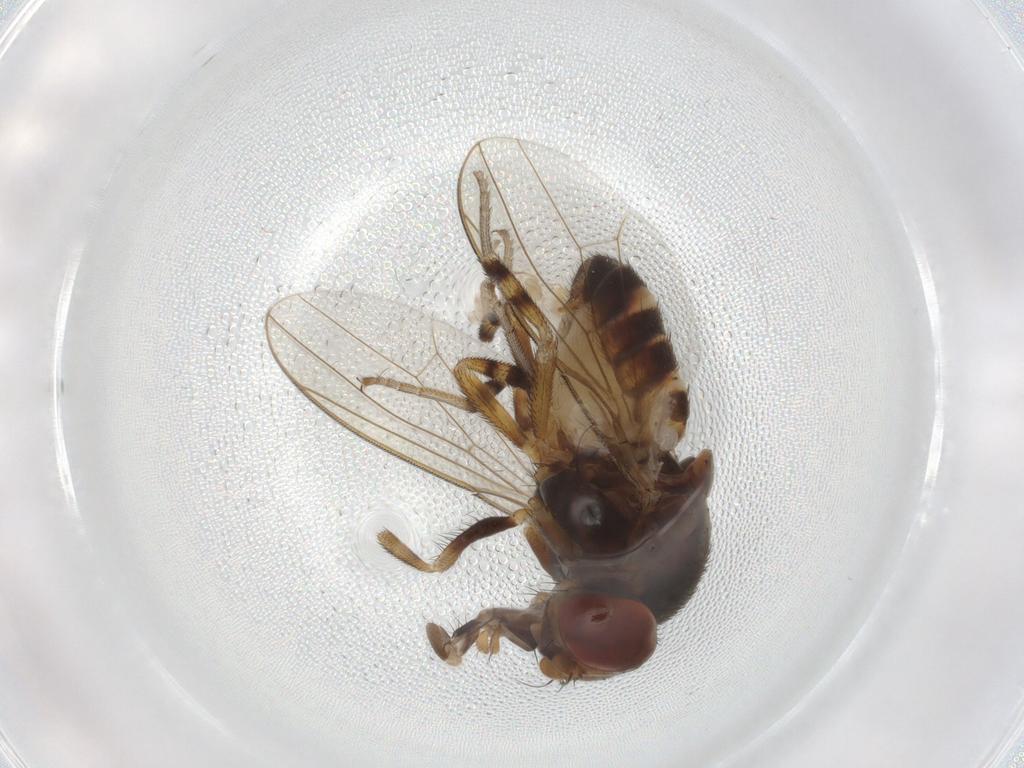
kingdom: Animalia
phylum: Arthropoda
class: Insecta
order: Diptera
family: Drosophilidae
